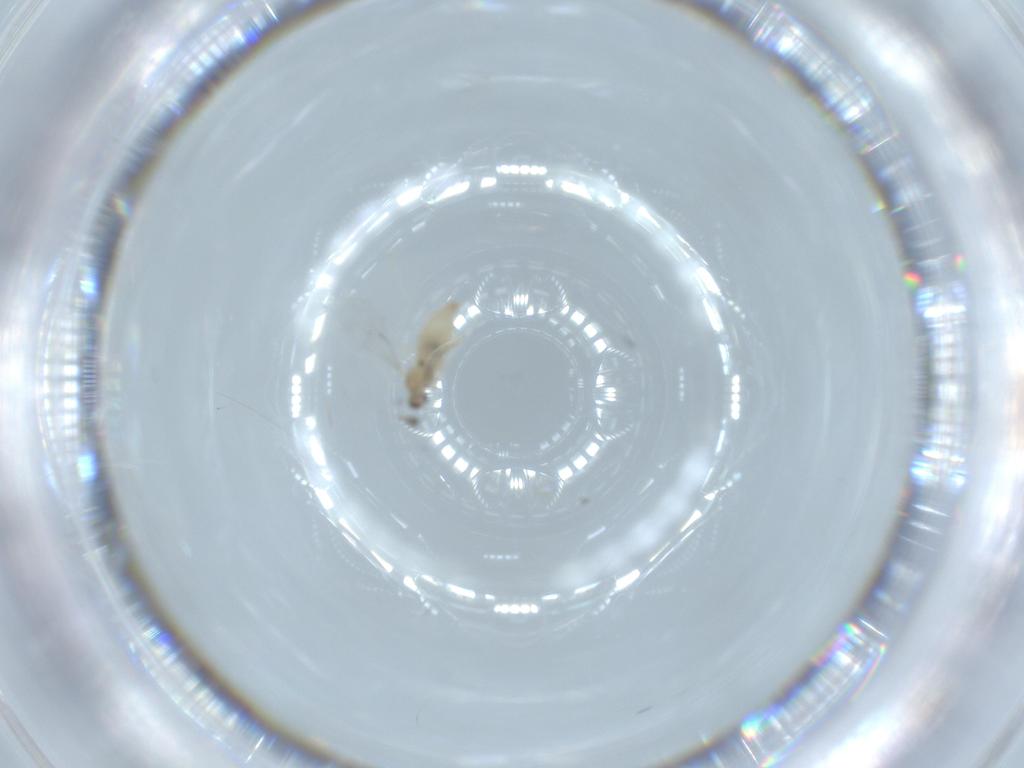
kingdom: Animalia
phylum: Arthropoda
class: Insecta
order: Diptera
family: Cecidomyiidae
